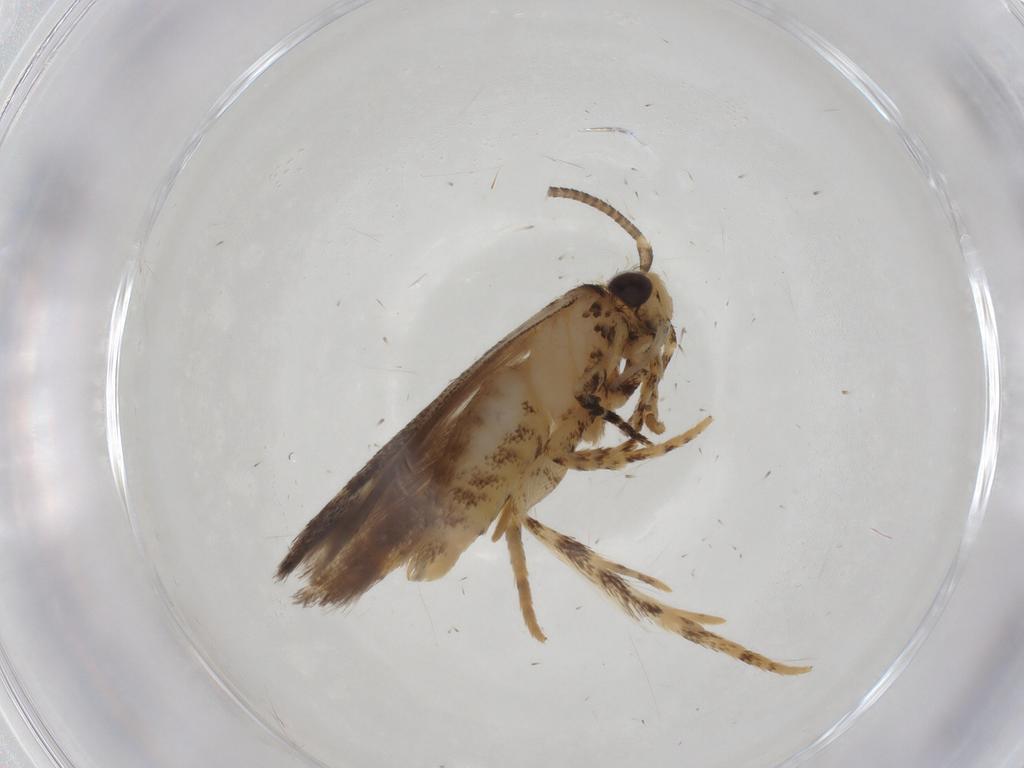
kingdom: Animalia
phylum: Arthropoda
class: Insecta
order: Lepidoptera
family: Gelechiidae
